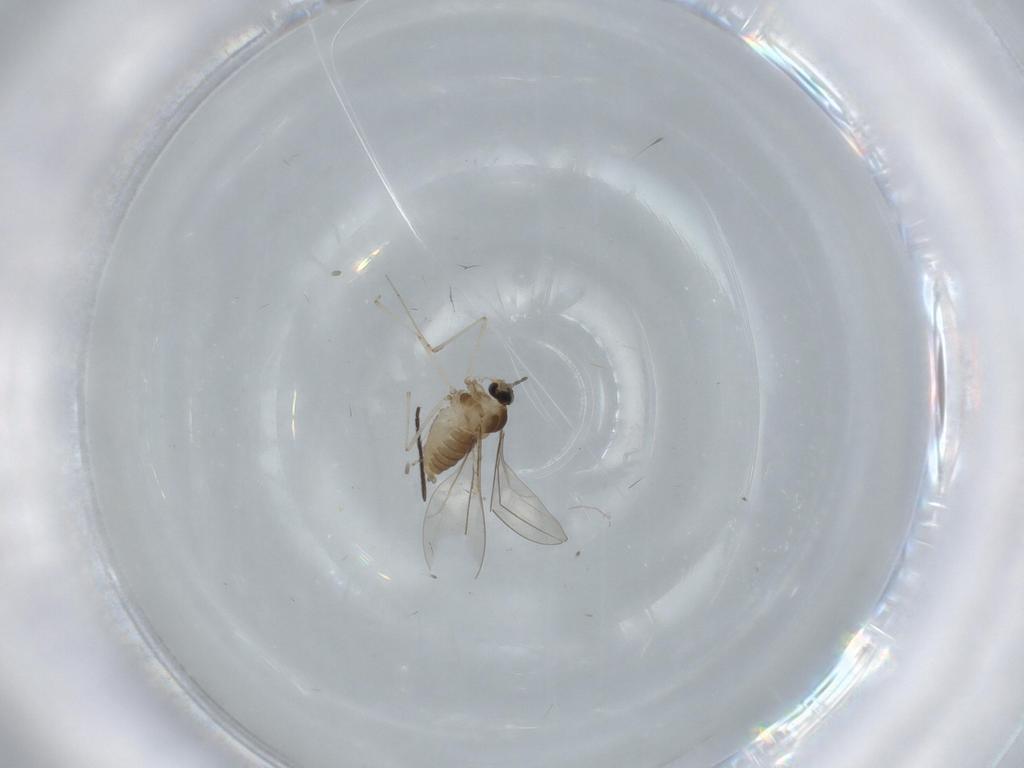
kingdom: Animalia
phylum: Arthropoda
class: Insecta
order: Diptera
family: Cecidomyiidae
